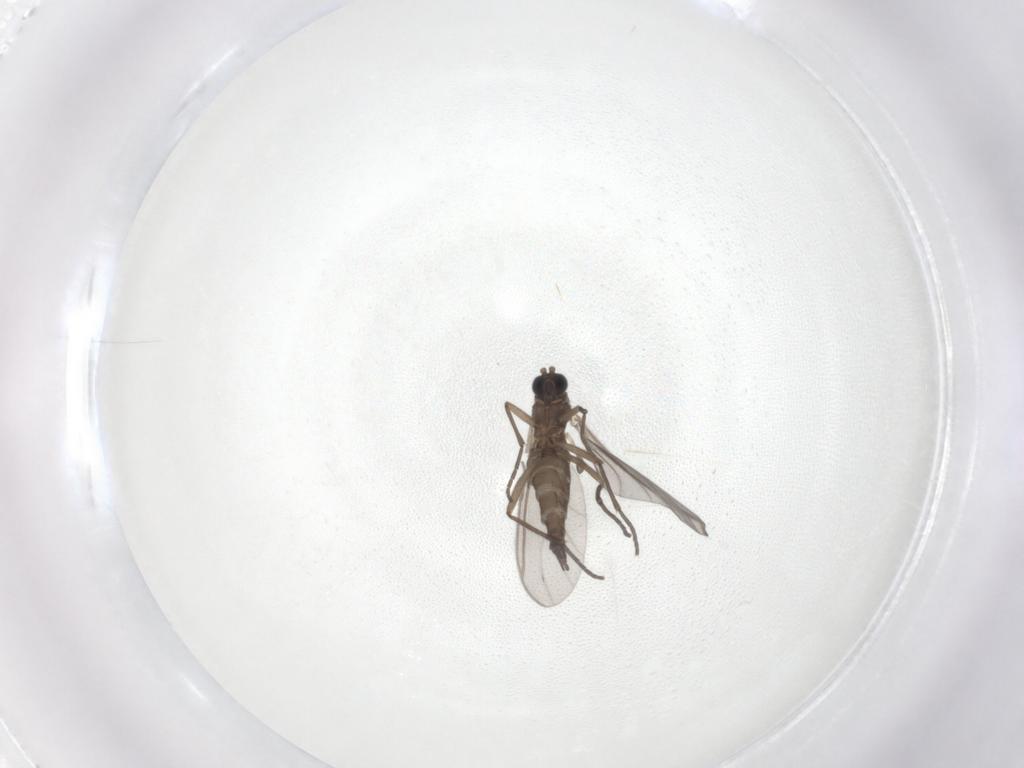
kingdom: Animalia
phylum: Arthropoda
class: Insecta
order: Diptera
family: Sciaridae
